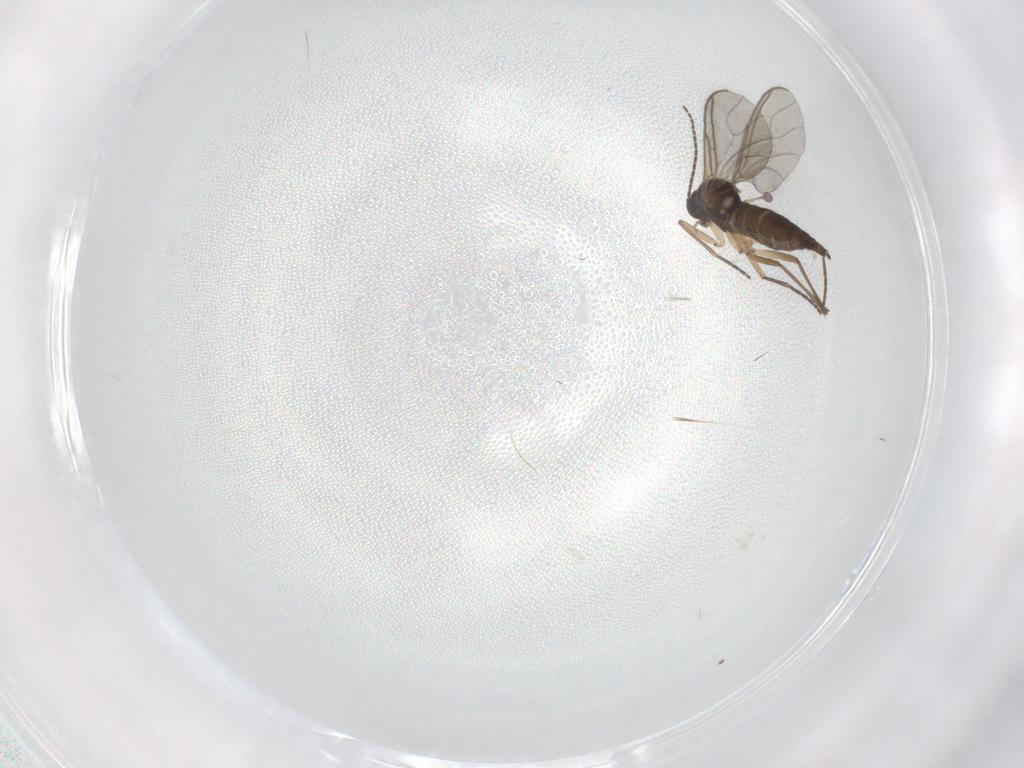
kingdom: Animalia
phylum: Arthropoda
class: Insecta
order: Diptera
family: Sciaridae
